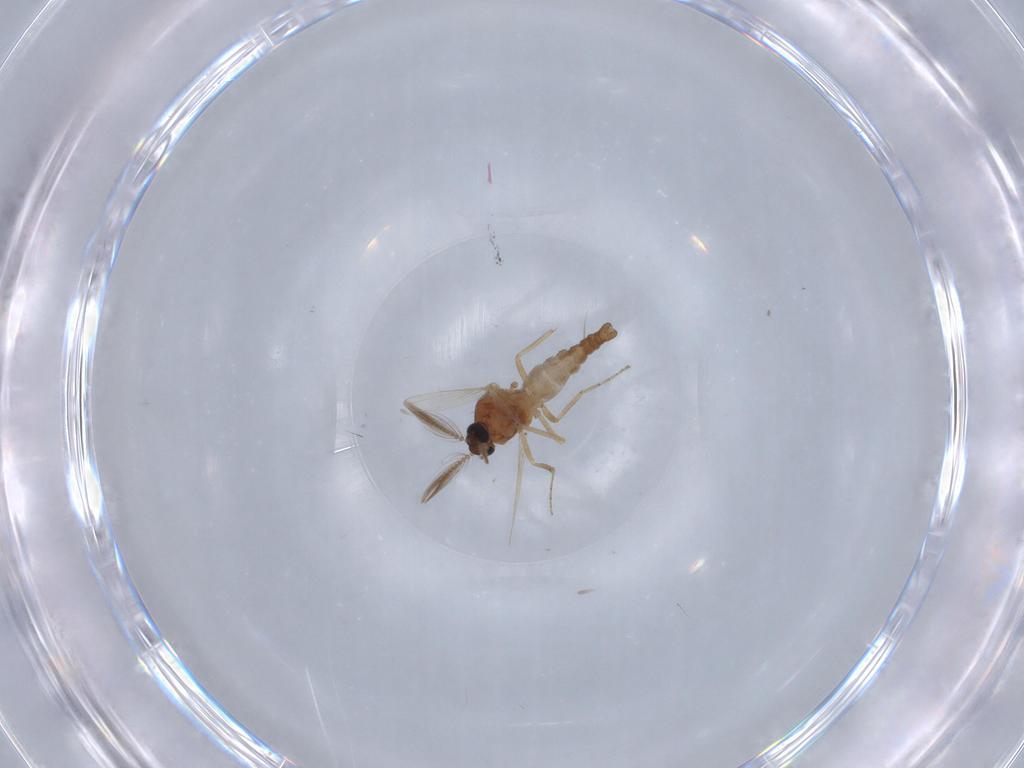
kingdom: Animalia
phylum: Arthropoda
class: Insecta
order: Diptera
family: Ceratopogonidae
